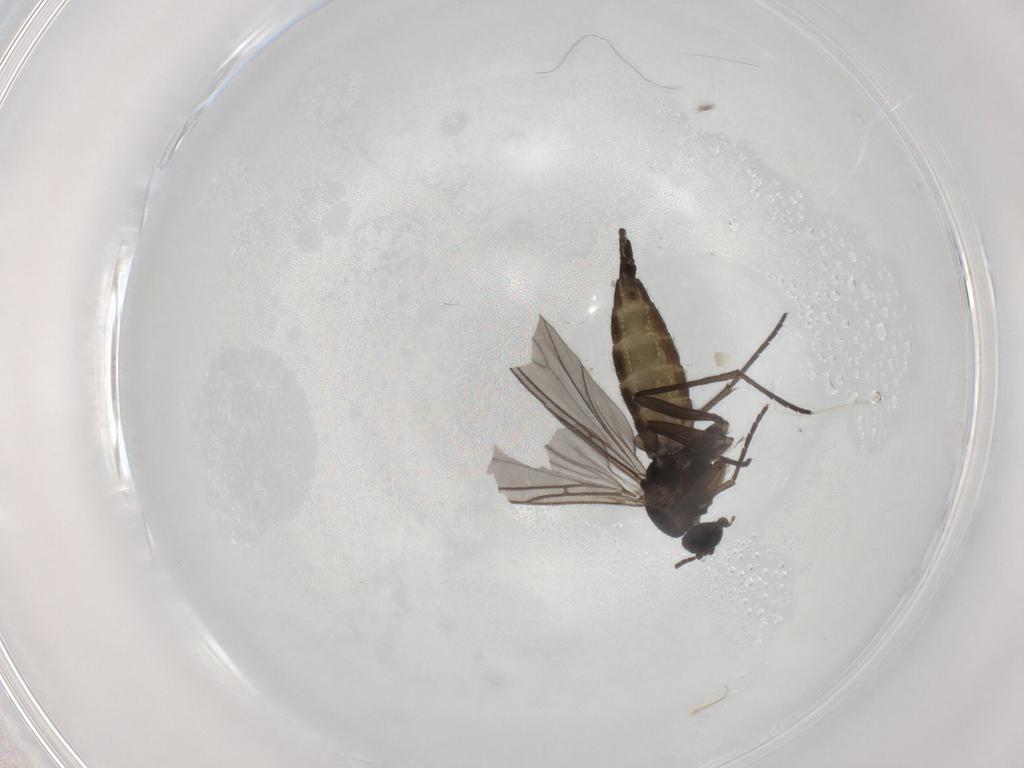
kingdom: Animalia
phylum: Arthropoda
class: Insecta
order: Diptera
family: Sciaridae
